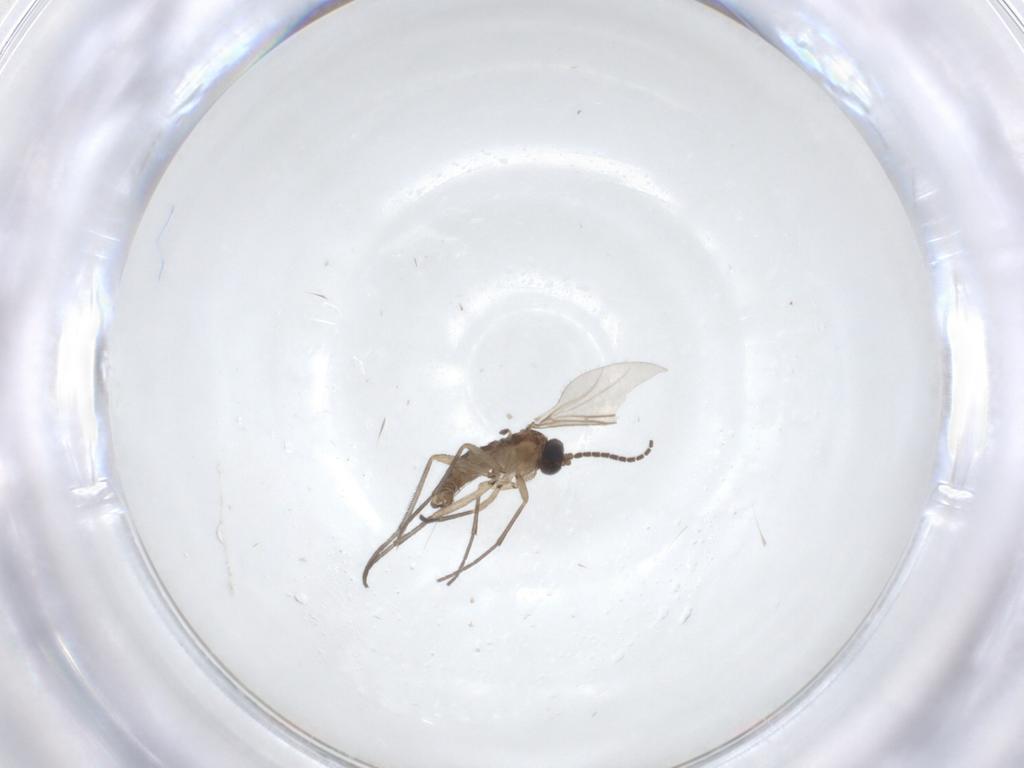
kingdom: Animalia
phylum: Arthropoda
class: Insecta
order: Diptera
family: Sciaridae
